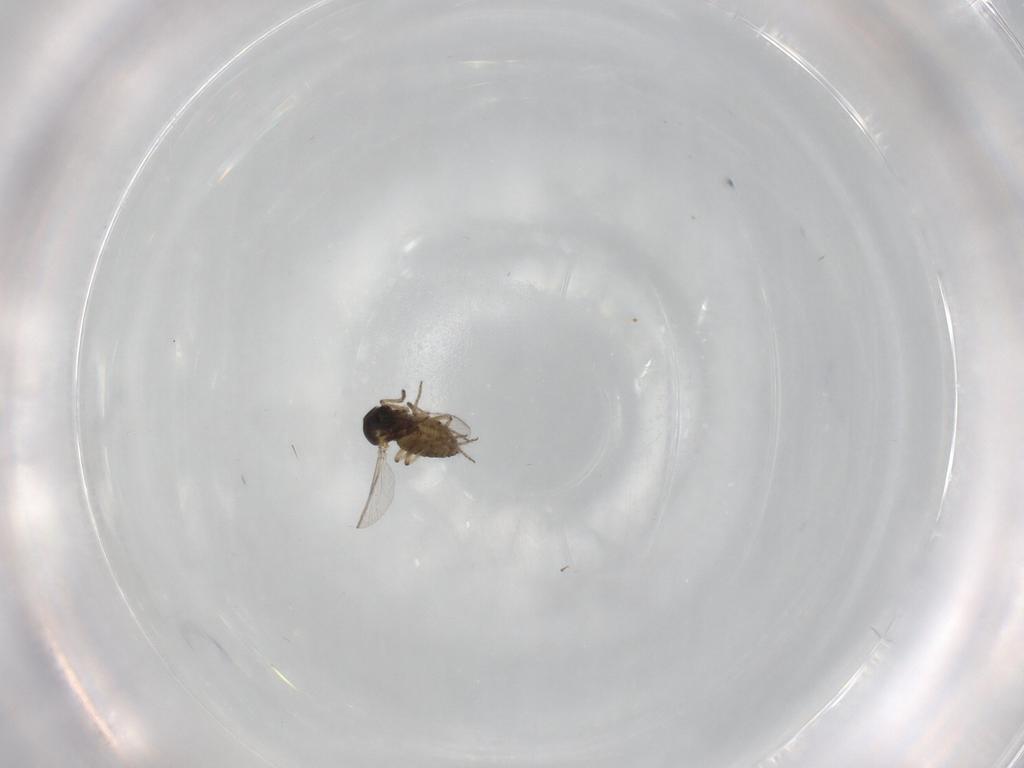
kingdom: Animalia
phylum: Arthropoda
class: Insecta
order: Diptera
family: Ceratopogonidae
